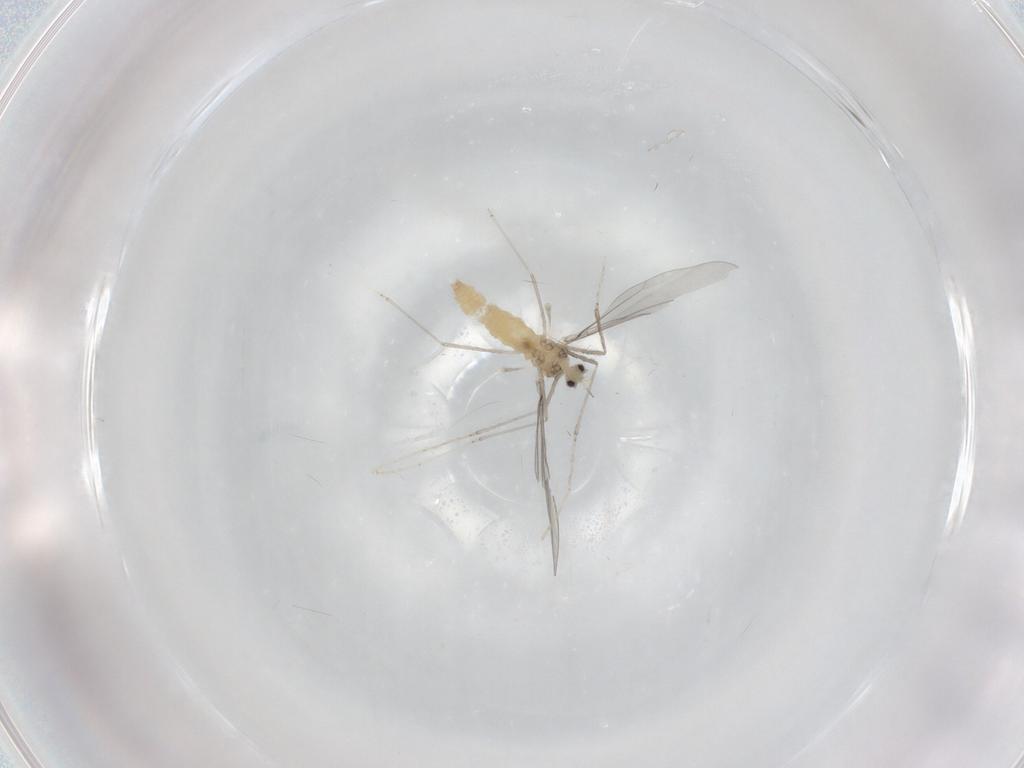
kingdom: Animalia
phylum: Arthropoda
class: Insecta
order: Diptera
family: Cecidomyiidae
